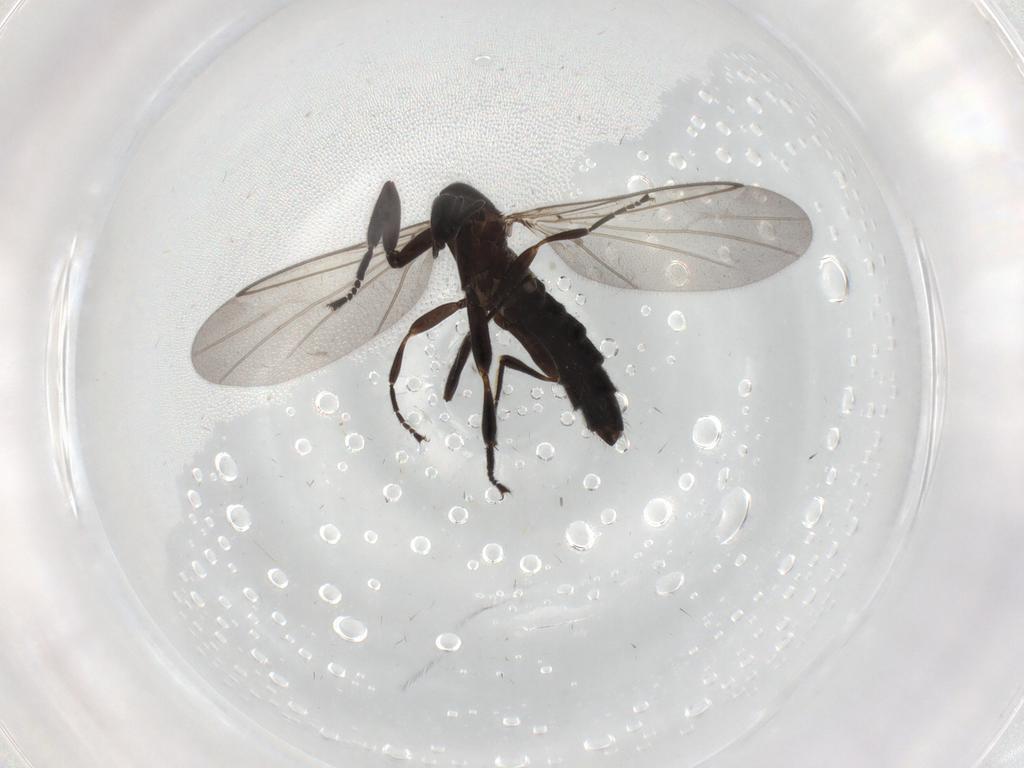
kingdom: Animalia
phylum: Arthropoda
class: Insecta
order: Diptera
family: Scatopsidae
